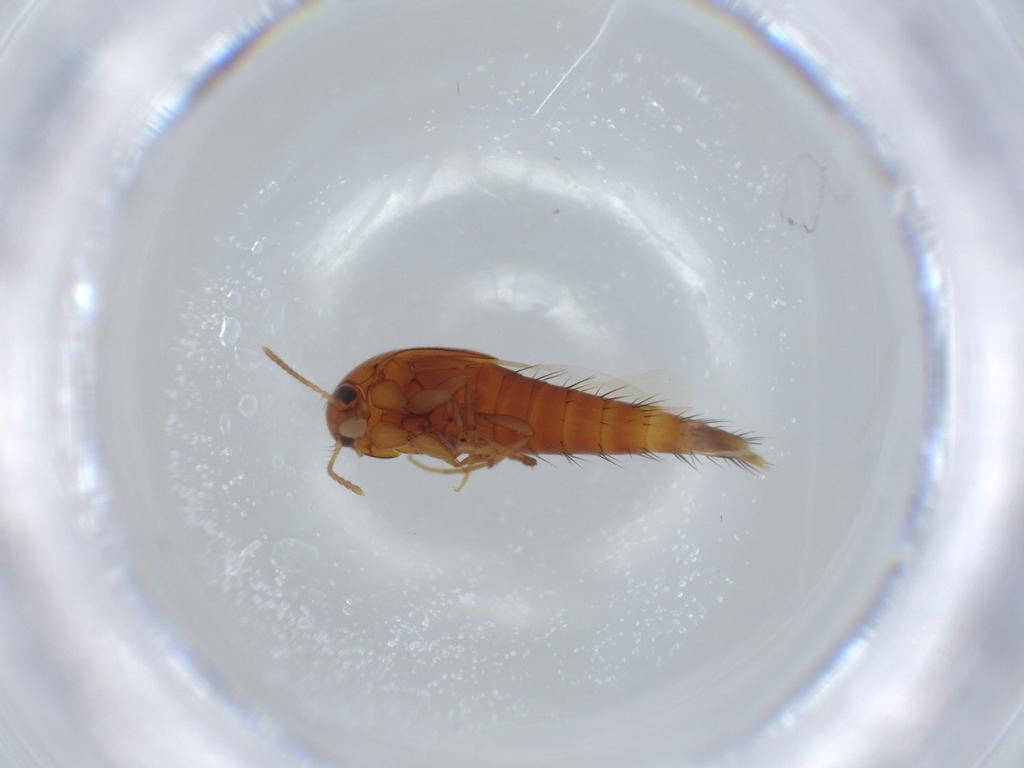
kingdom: Animalia
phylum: Arthropoda
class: Insecta
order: Coleoptera
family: Staphylinidae
